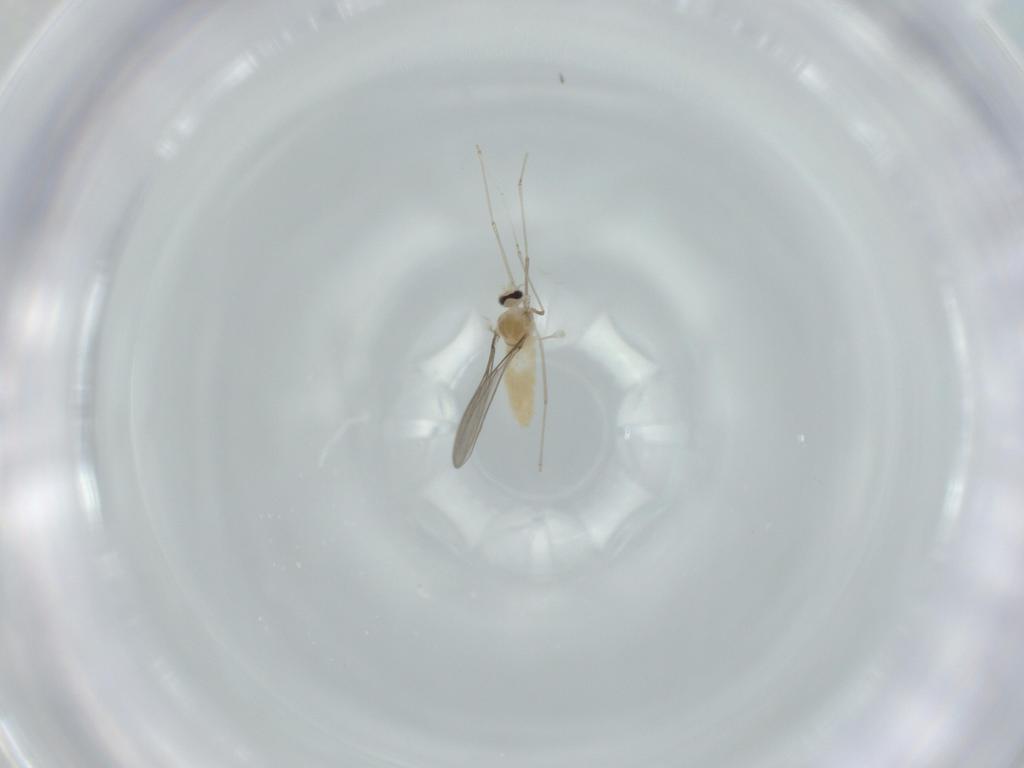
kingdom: Animalia
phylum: Arthropoda
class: Insecta
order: Diptera
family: Cecidomyiidae
